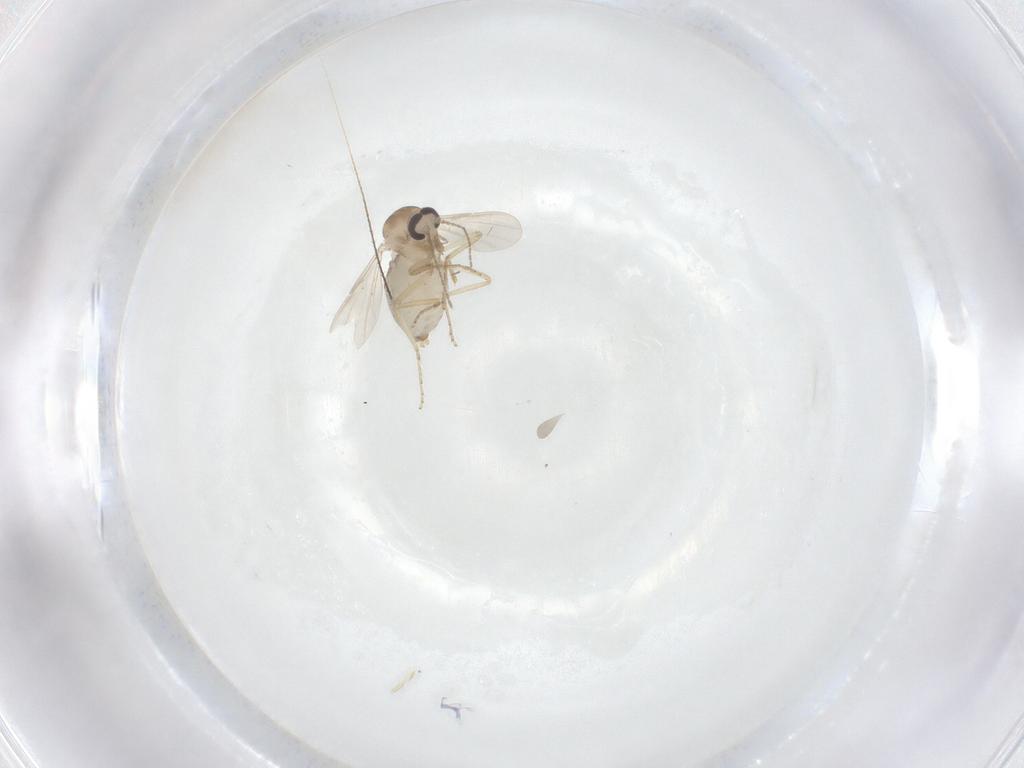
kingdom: Animalia
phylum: Arthropoda
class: Insecta
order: Diptera
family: Ceratopogonidae
